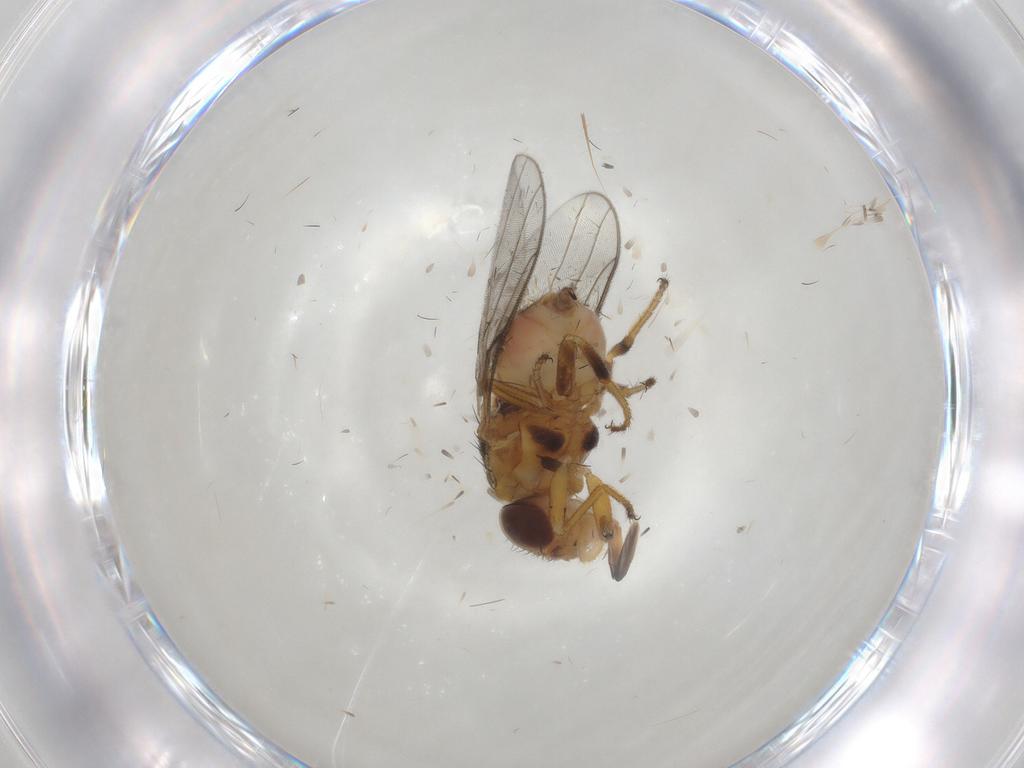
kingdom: Animalia
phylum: Arthropoda
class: Insecta
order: Diptera
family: Chloropidae
